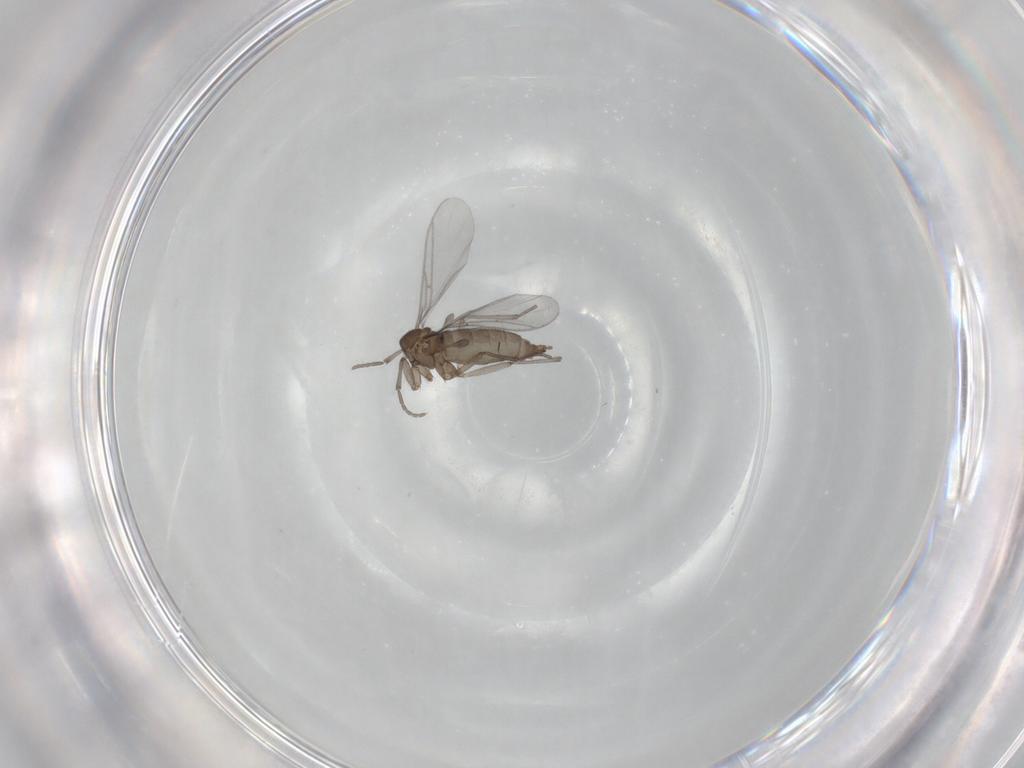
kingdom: Animalia
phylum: Arthropoda
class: Insecta
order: Diptera
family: Sciaridae
